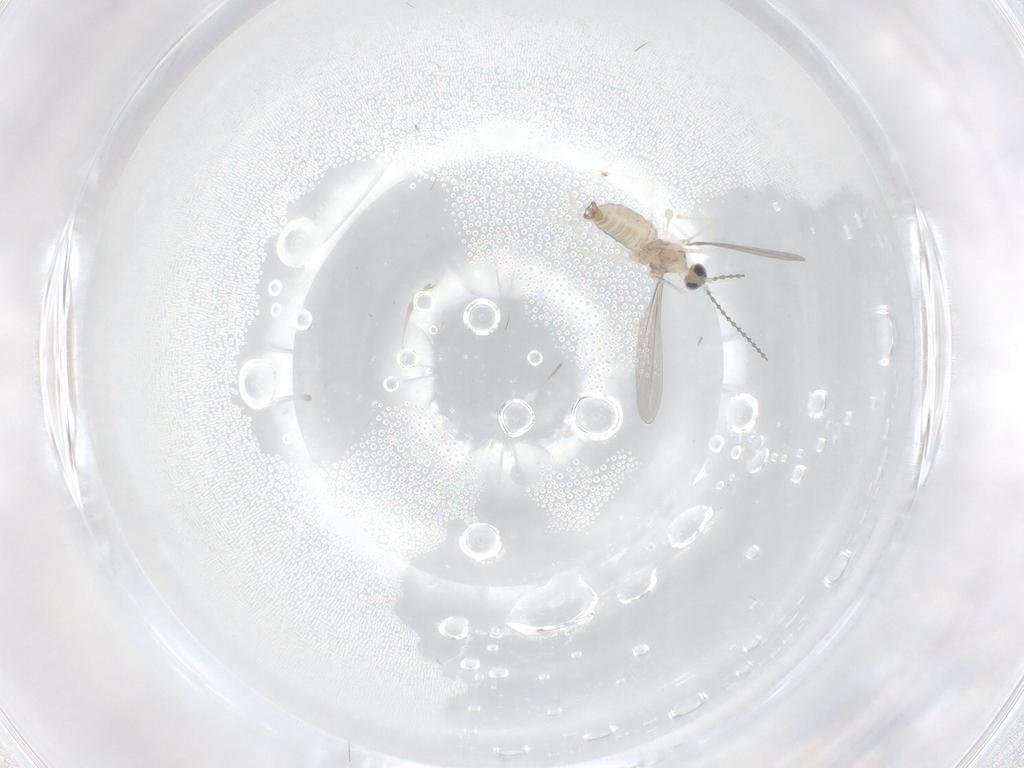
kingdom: Animalia
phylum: Arthropoda
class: Insecta
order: Diptera
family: Cecidomyiidae
